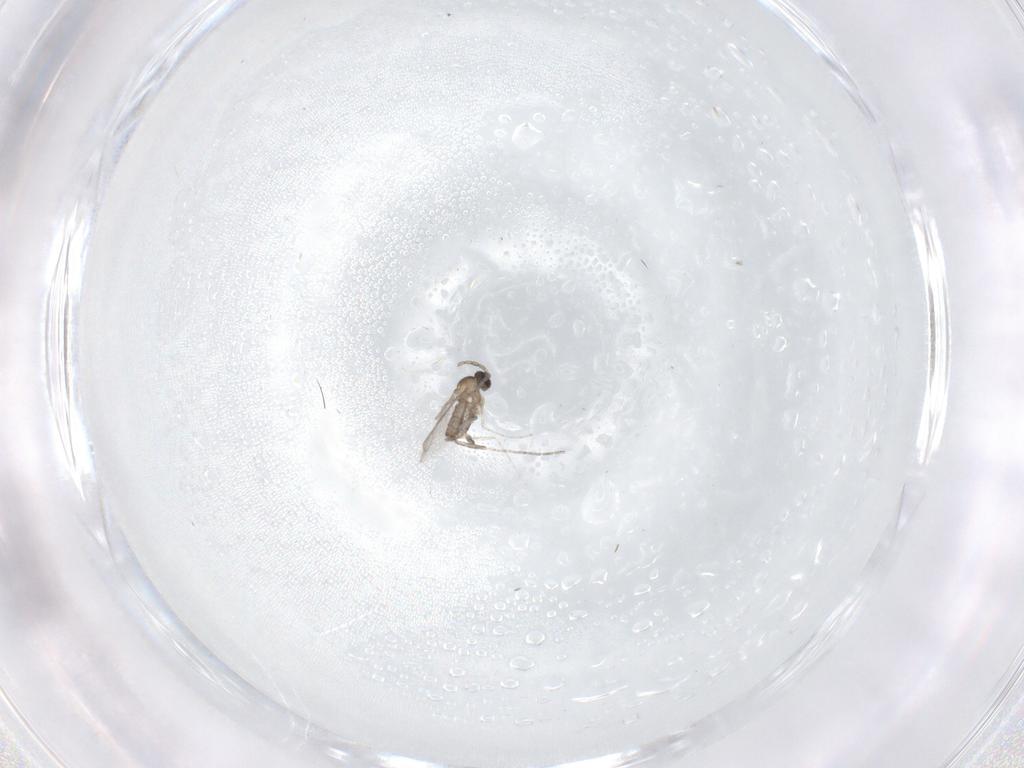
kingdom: Animalia
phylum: Arthropoda
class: Insecta
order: Diptera
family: Cecidomyiidae
